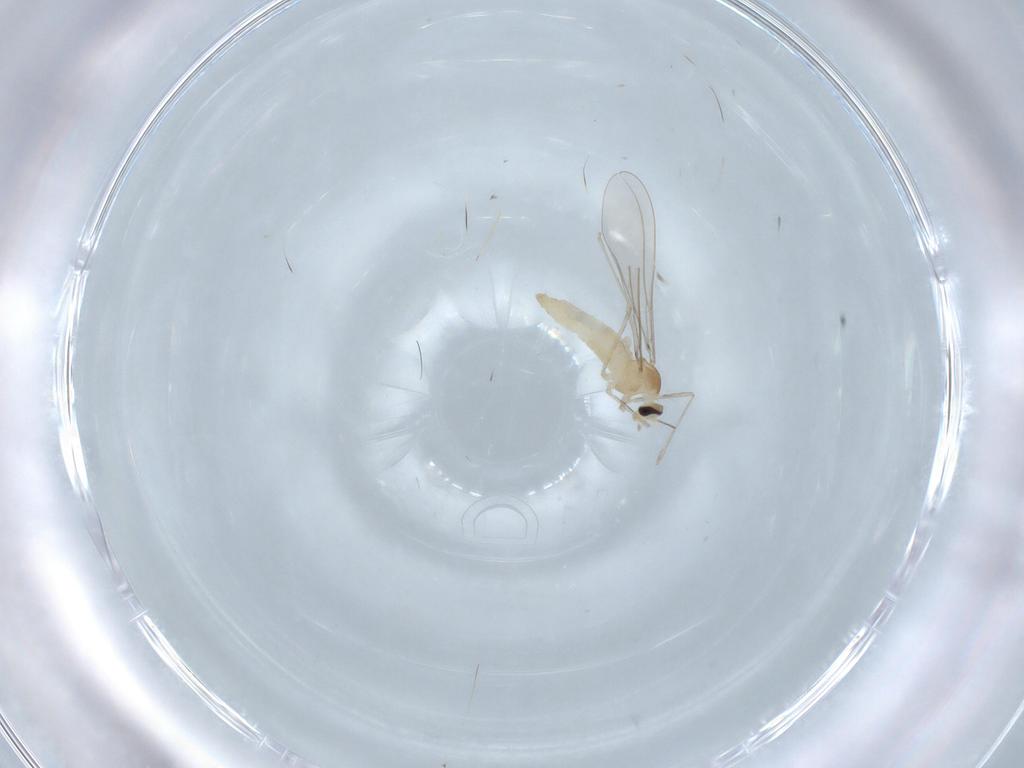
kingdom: Animalia
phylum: Arthropoda
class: Insecta
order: Diptera
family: Cecidomyiidae
